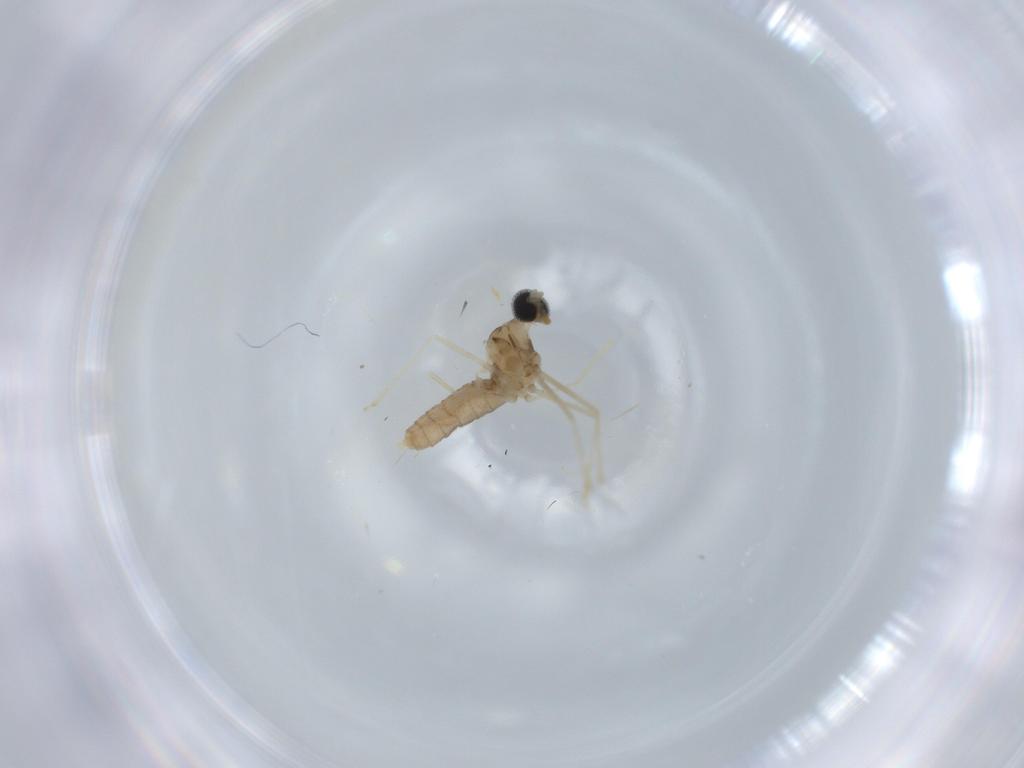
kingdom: Animalia
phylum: Arthropoda
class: Insecta
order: Diptera
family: Cecidomyiidae
